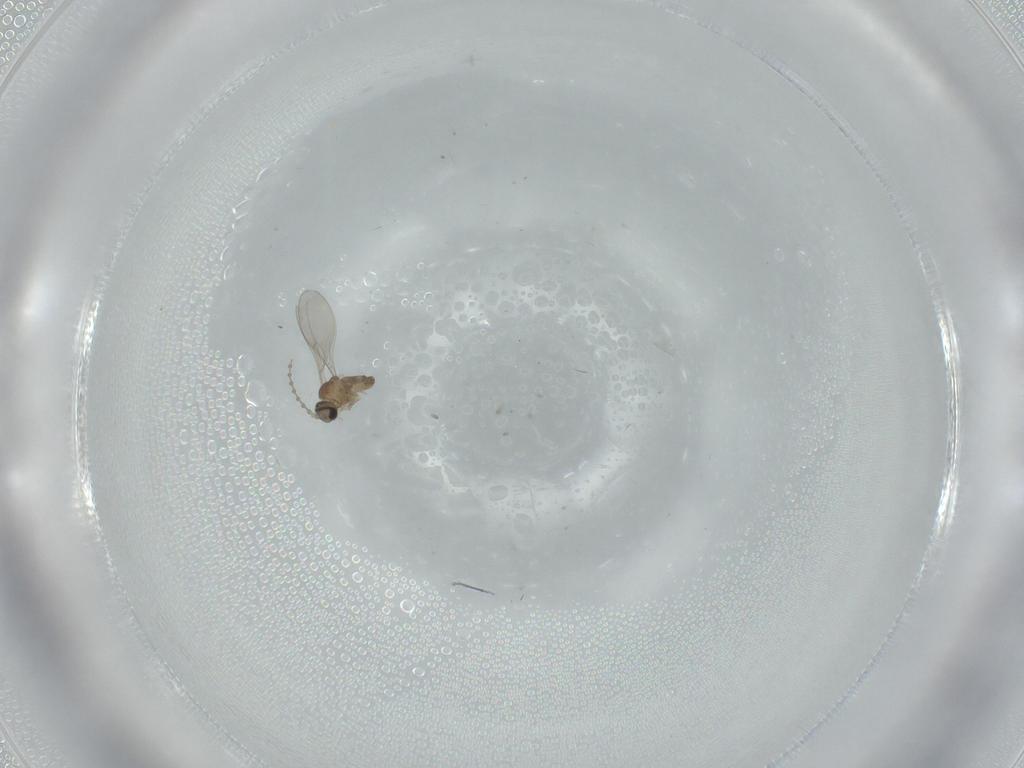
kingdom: Animalia
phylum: Arthropoda
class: Insecta
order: Diptera
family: Cecidomyiidae
